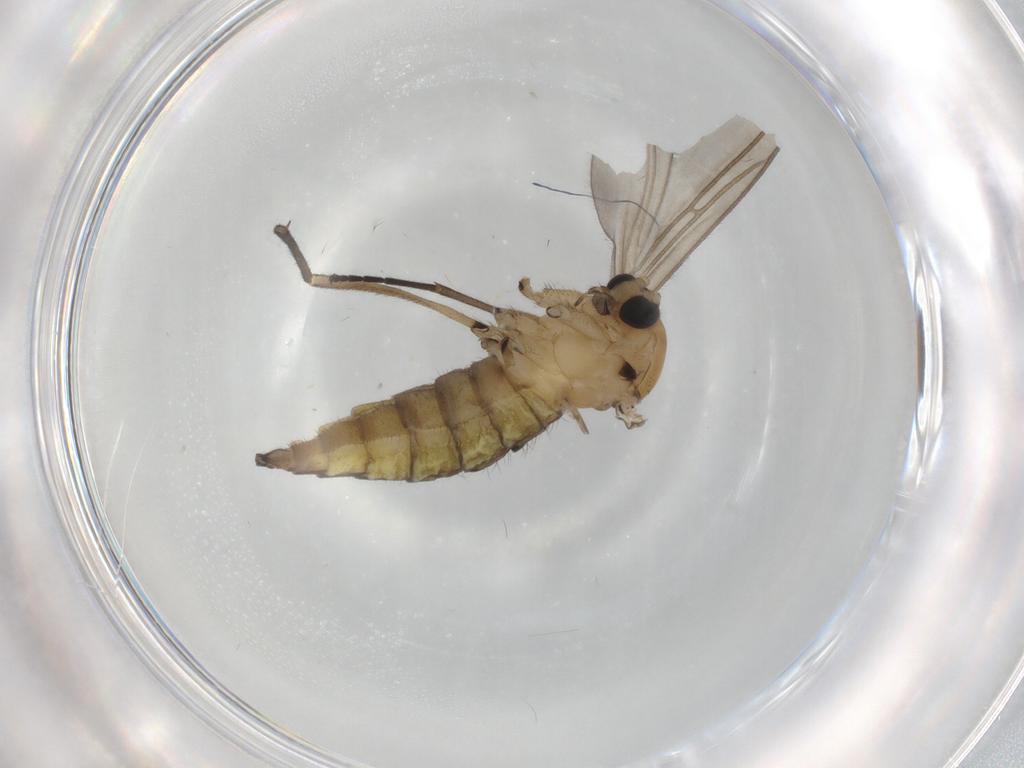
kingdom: Animalia
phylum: Arthropoda
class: Insecta
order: Diptera
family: Sciaridae
